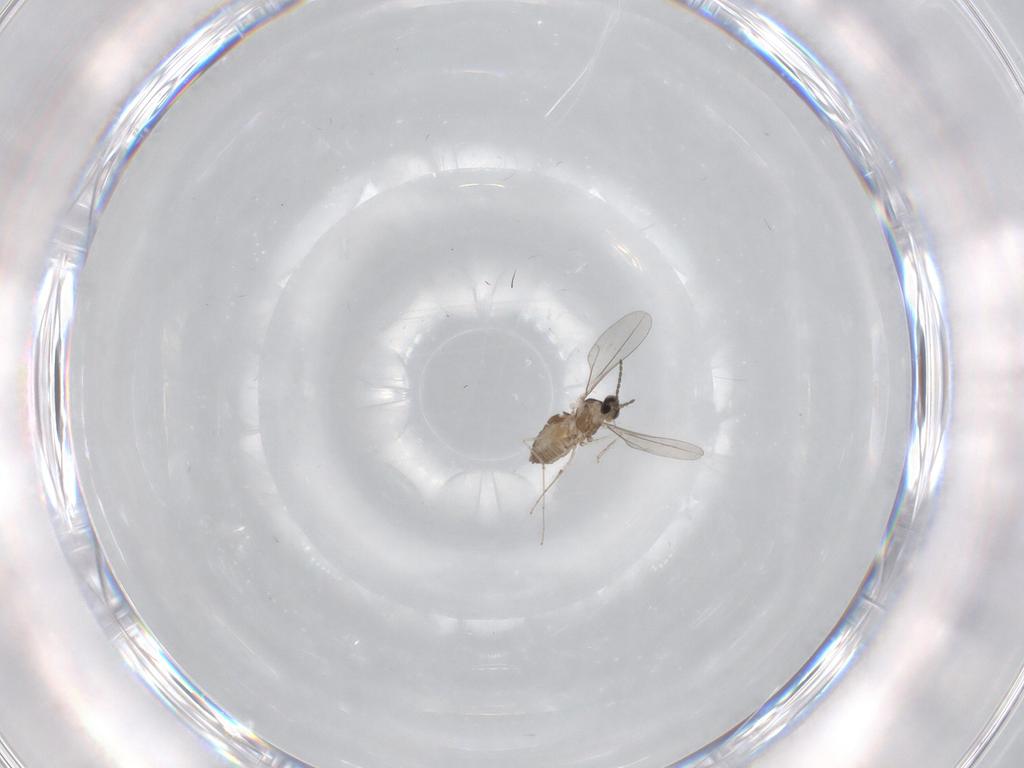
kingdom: Animalia
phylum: Arthropoda
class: Insecta
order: Diptera
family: Cecidomyiidae
